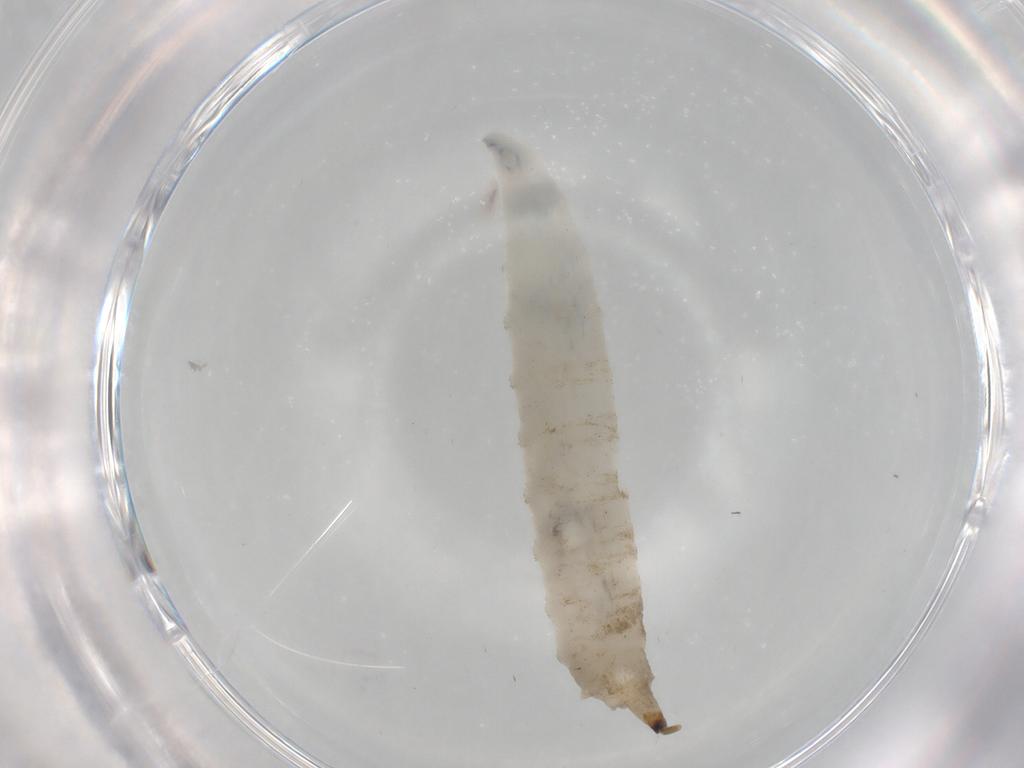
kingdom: Animalia
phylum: Arthropoda
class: Insecta
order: Diptera
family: Drosophilidae
